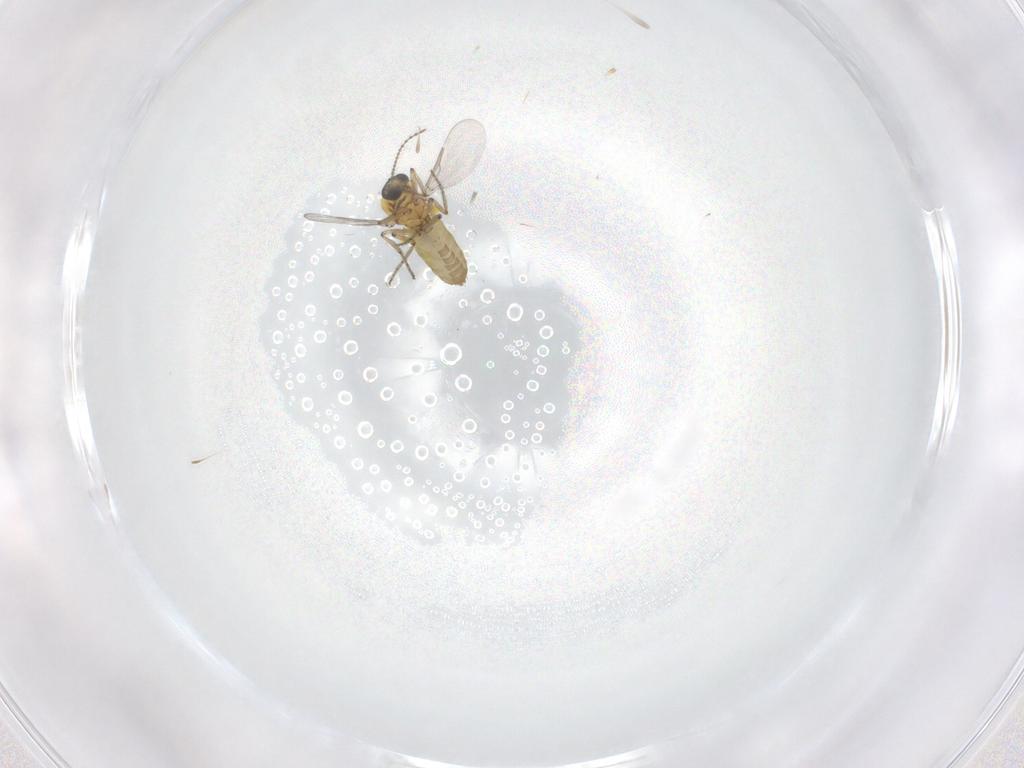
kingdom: Animalia
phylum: Arthropoda
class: Insecta
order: Diptera
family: Ceratopogonidae
